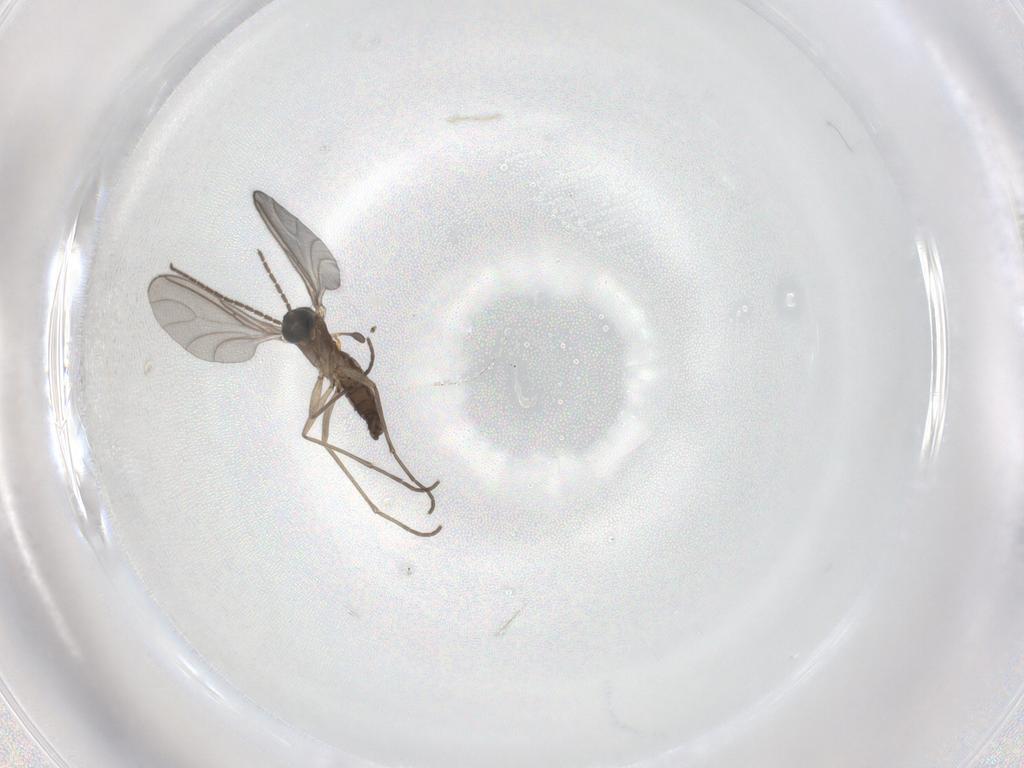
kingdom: Animalia
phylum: Arthropoda
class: Insecta
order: Diptera
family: Sciaridae
